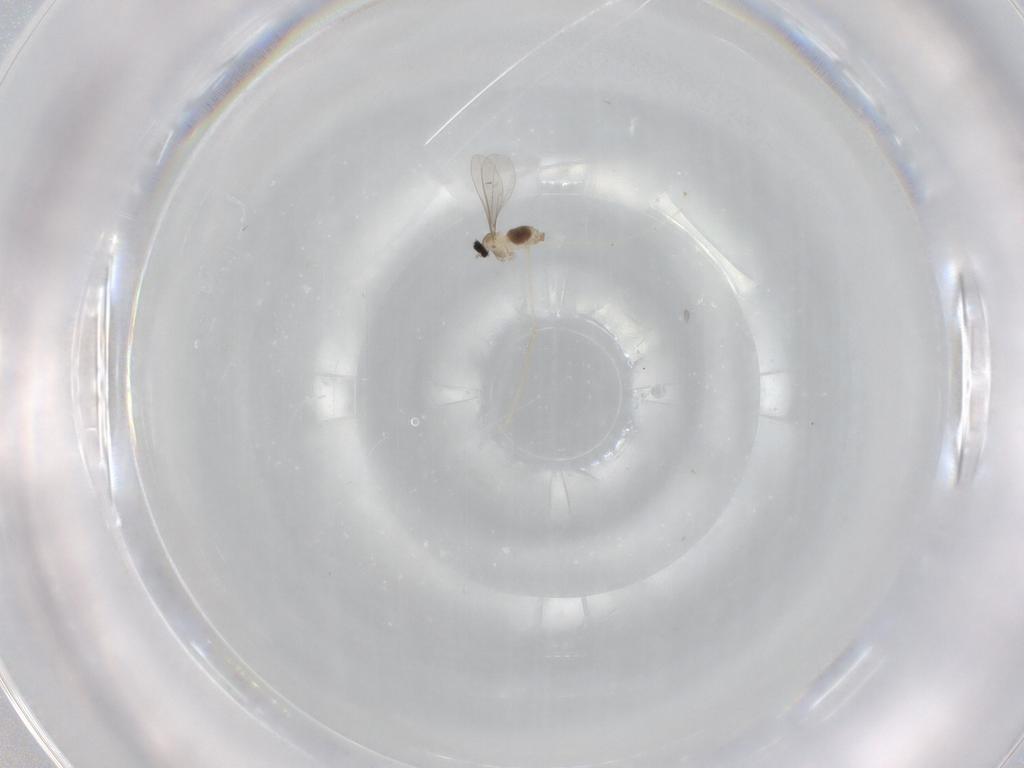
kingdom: Animalia
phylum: Arthropoda
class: Insecta
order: Diptera
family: Cecidomyiidae
